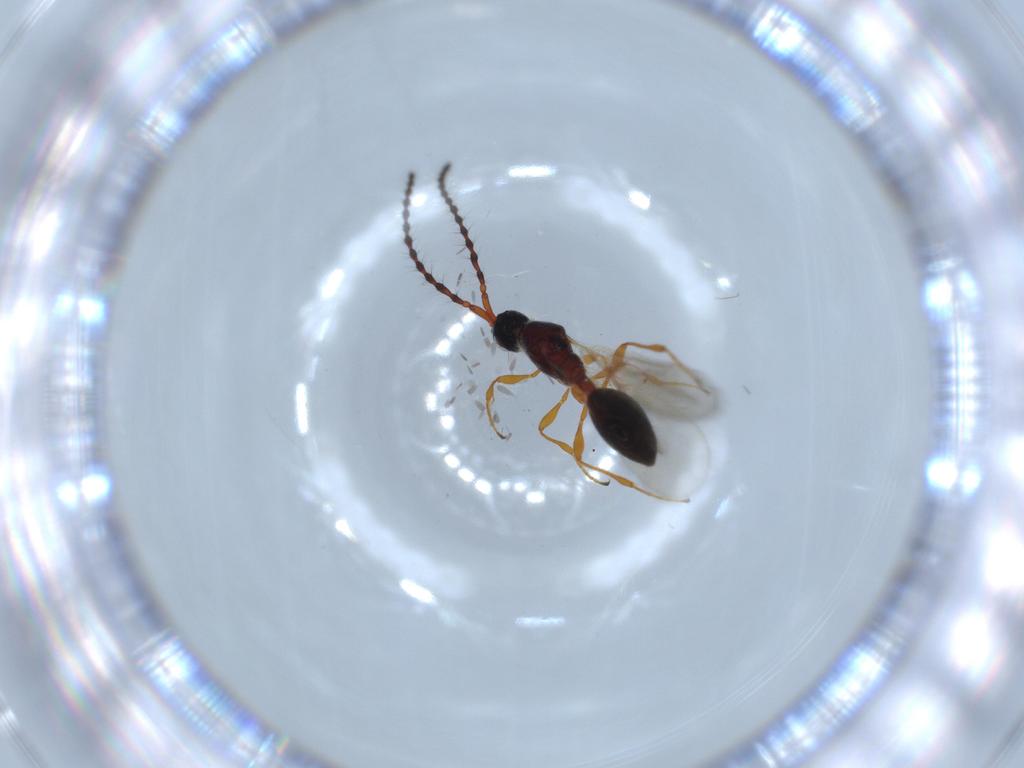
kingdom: Animalia
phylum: Arthropoda
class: Insecta
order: Hymenoptera
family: Diapriidae
